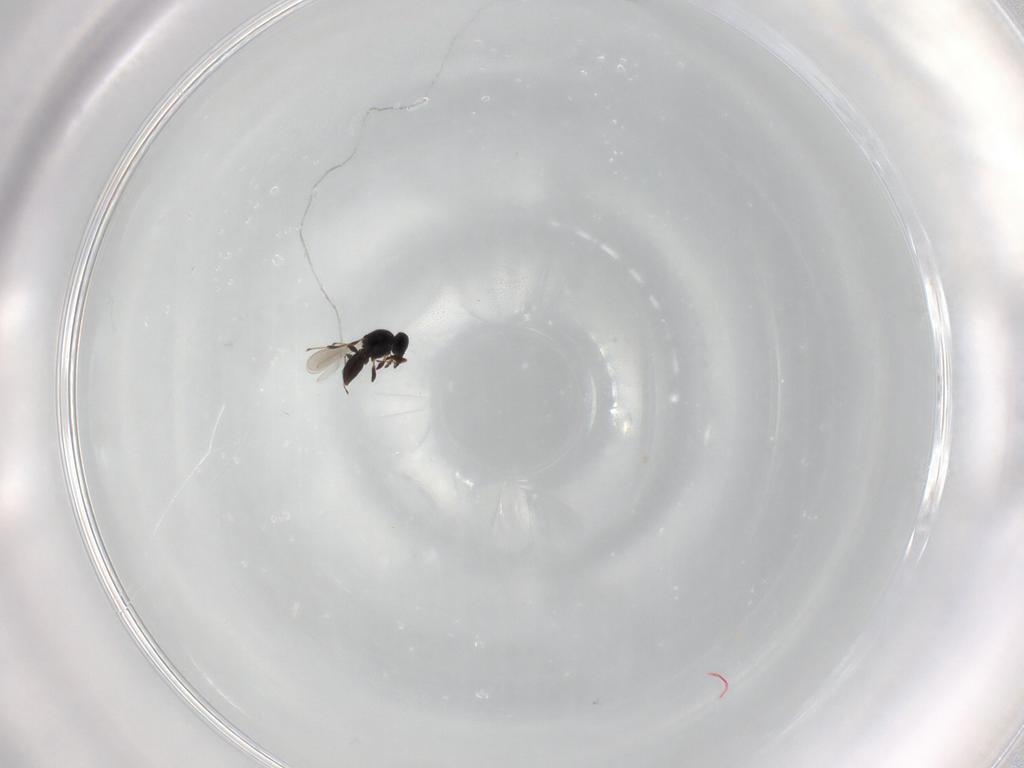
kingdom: Animalia
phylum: Arthropoda
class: Insecta
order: Hymenoptera
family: Platygastridae
